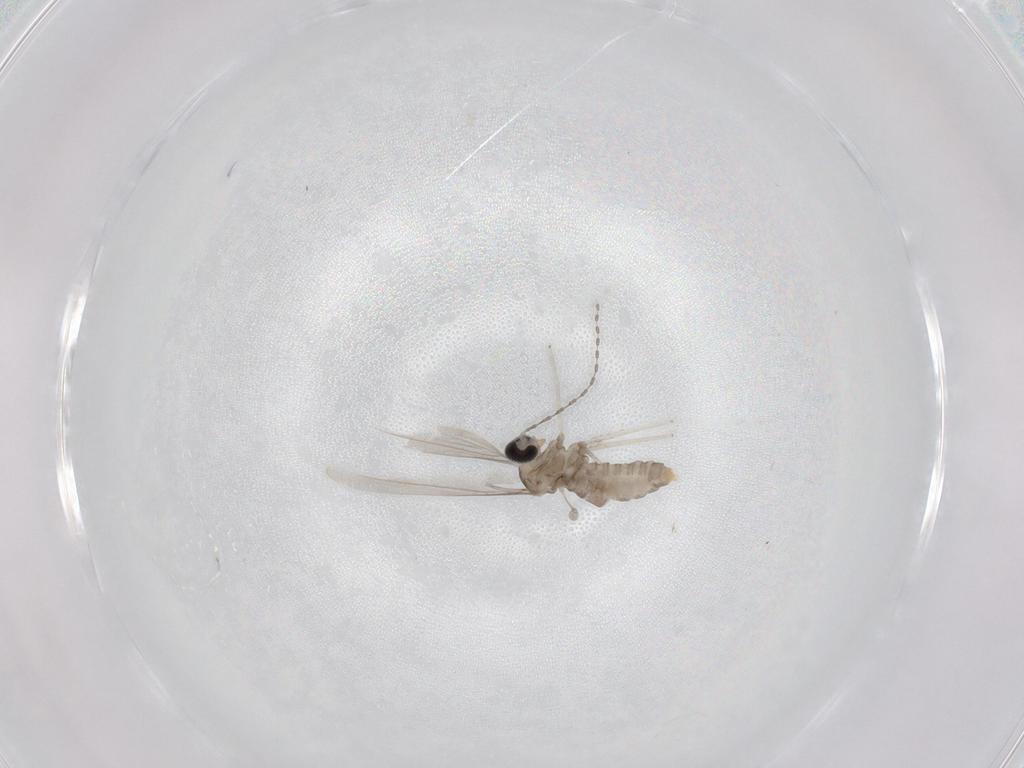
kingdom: Animalia
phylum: Arthropoda
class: Insecta
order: Diptera
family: Cecidomyiidae
